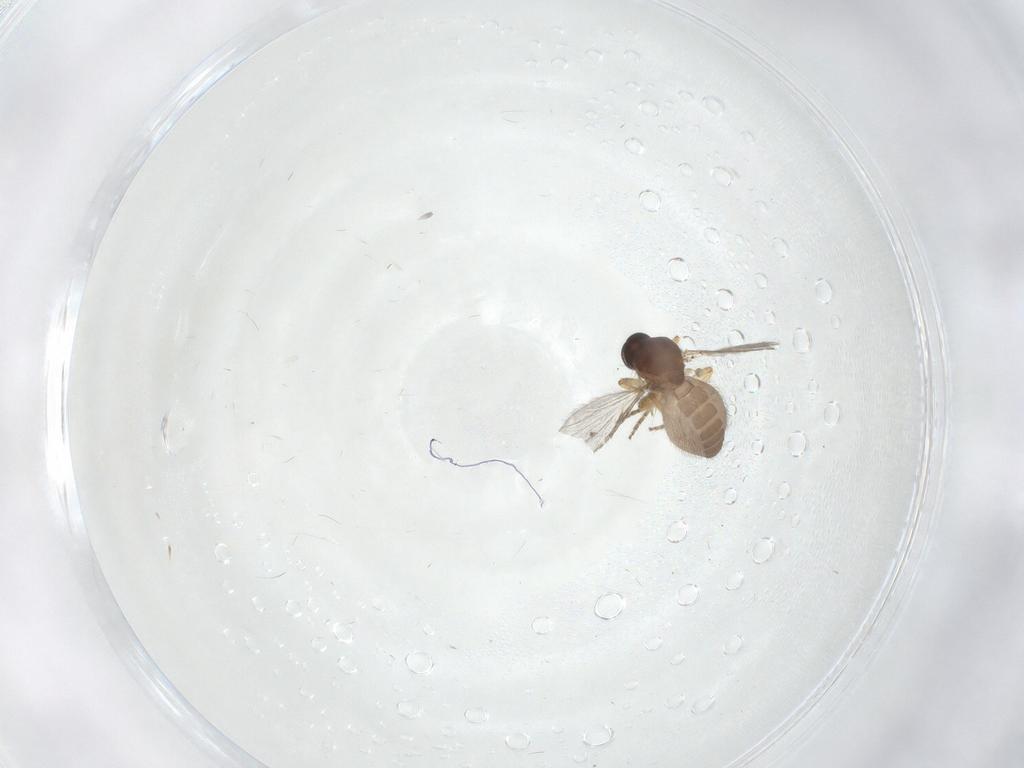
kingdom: Animalia
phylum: Arthropoda
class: Insecta
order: Diptera
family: Ceratopogonidae
